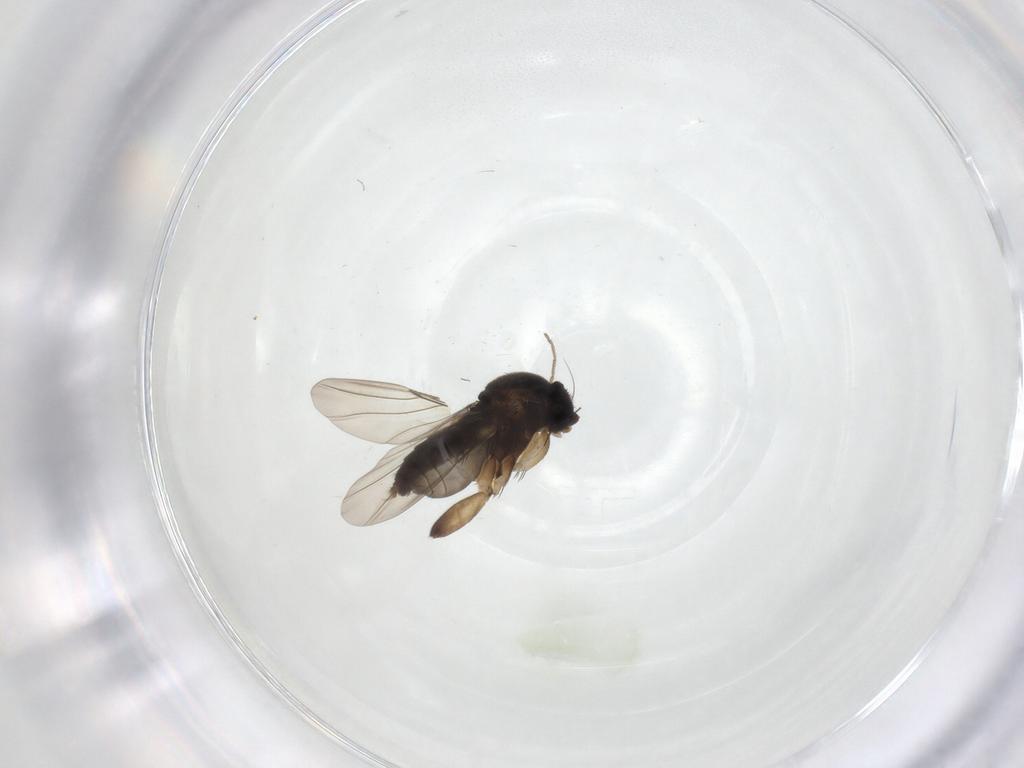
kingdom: Animalia
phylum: Arthropoda
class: Insecta
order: Diptera
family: Phoridae
